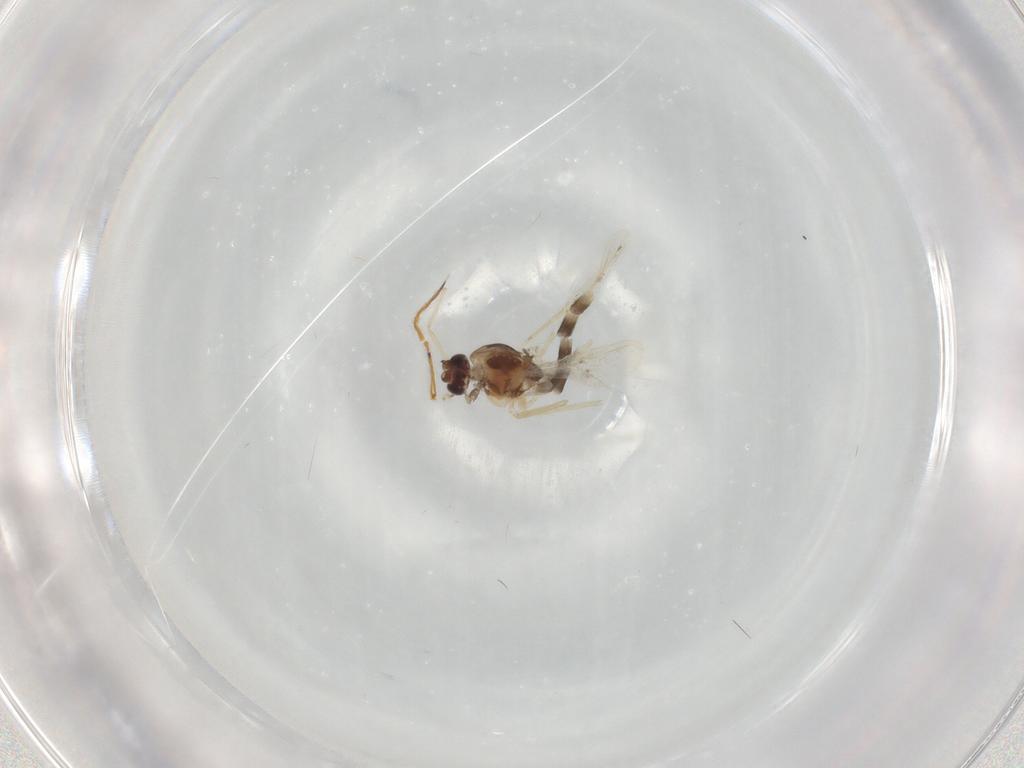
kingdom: Animalia
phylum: Arthropoda
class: Insecta
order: Diptera
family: Chironomidae
